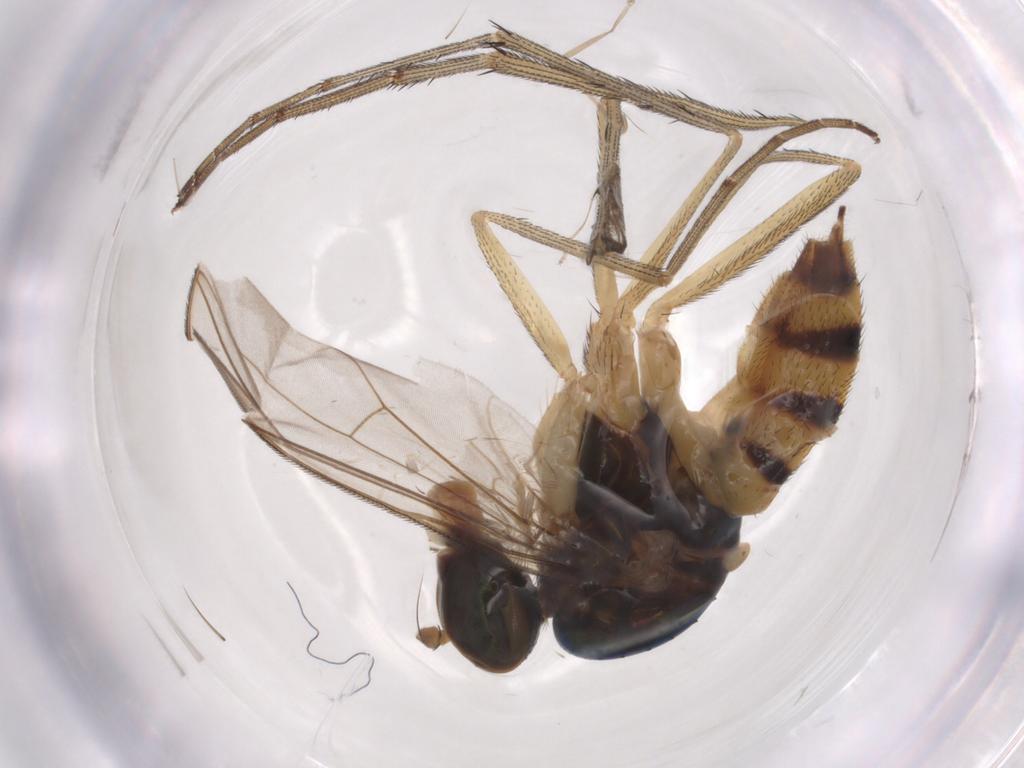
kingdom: Animalia
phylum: Arthropoda
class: Insecta
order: Diptera
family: Cecidomyiidae
